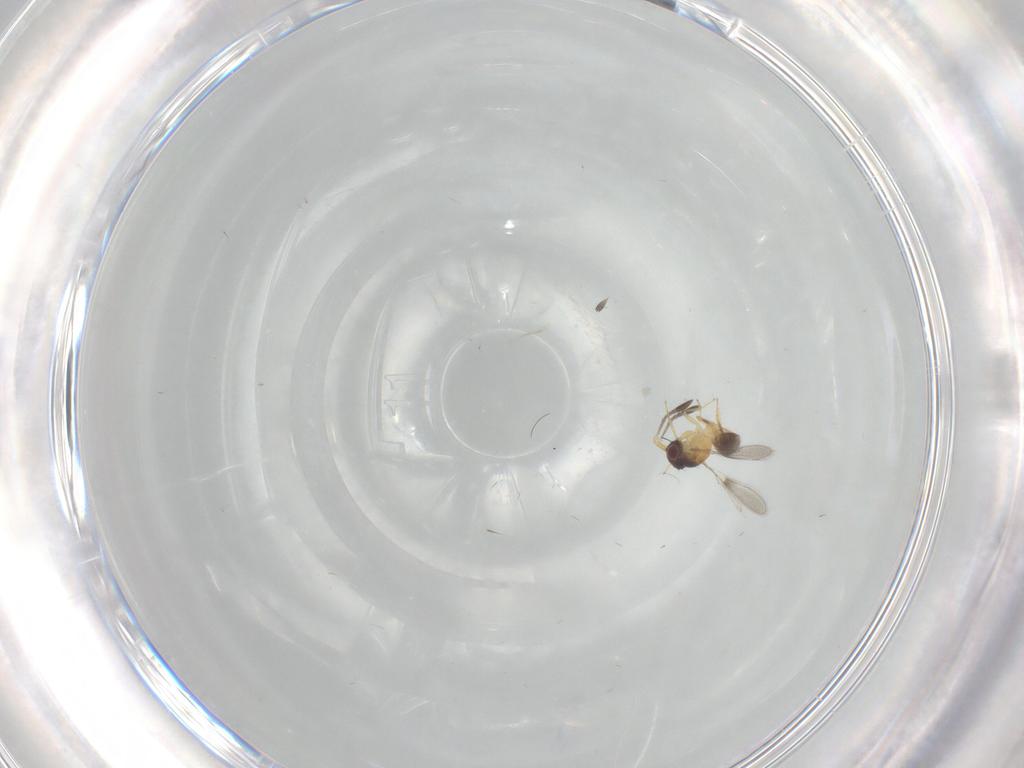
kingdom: Animalia
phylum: Arthropoda
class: Insecta
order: Hymenoptera
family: Mymaridae
